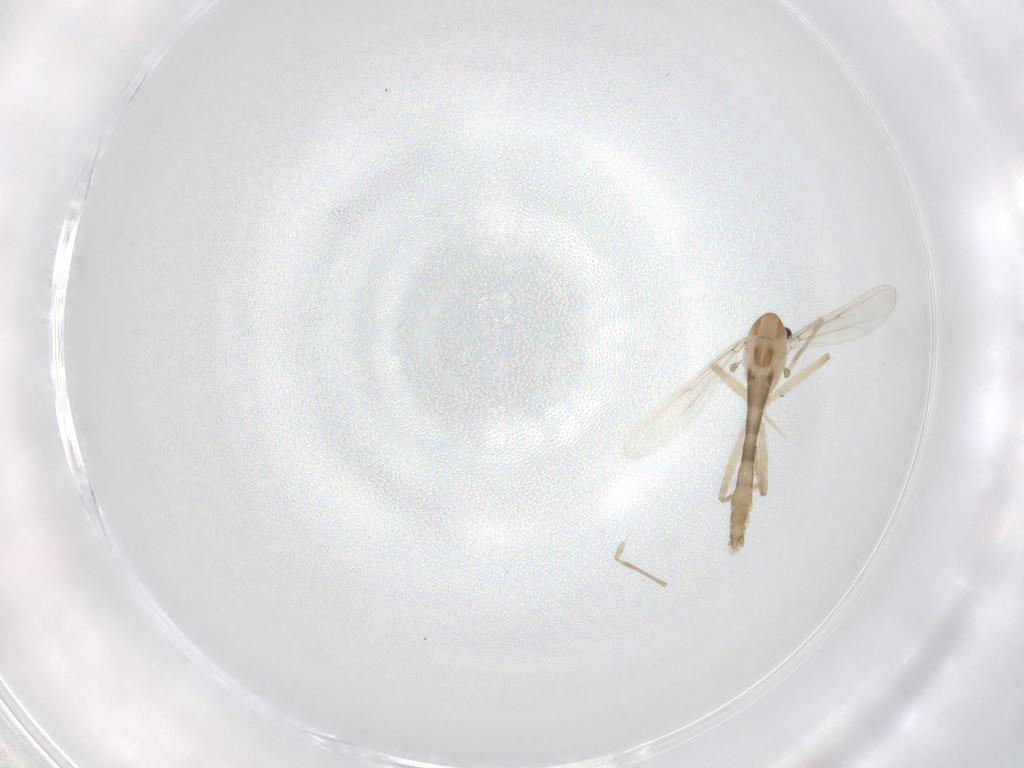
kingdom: Animalia
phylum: Arthropoda
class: Insecta
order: Diptera
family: Chironomidae
